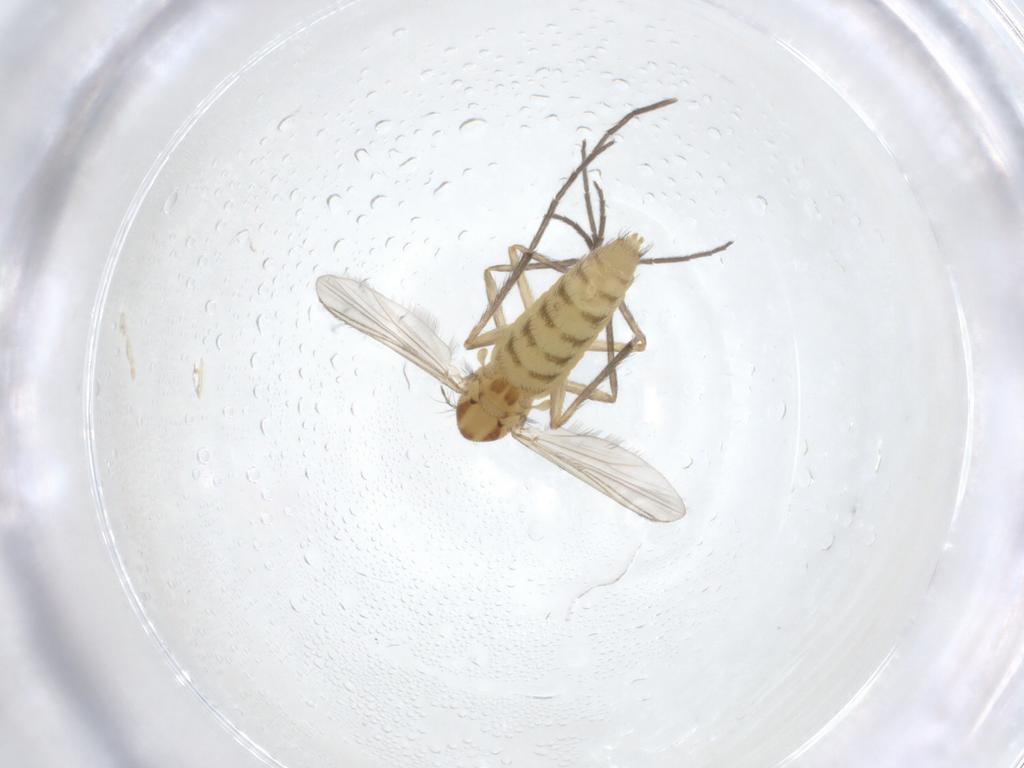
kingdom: Animalia
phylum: Arthropoda
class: Insecta
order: Diptera
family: Chironomidae
